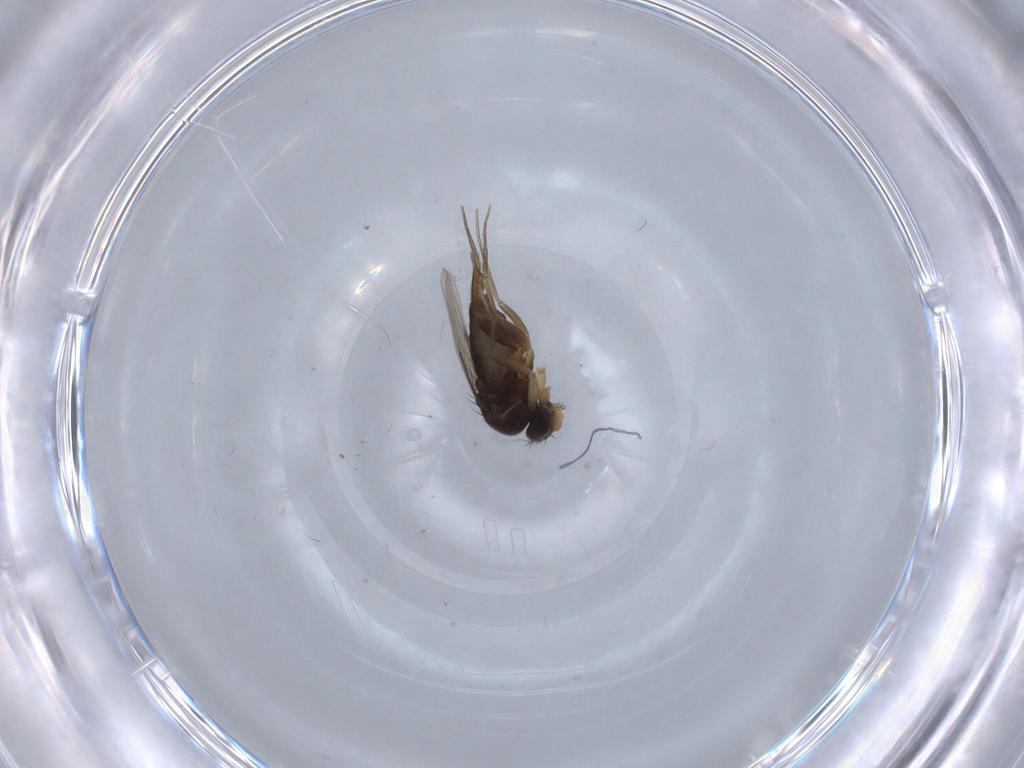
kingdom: Animalia
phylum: Arthropoda
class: Insecta
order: Diptera
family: Phoridae
